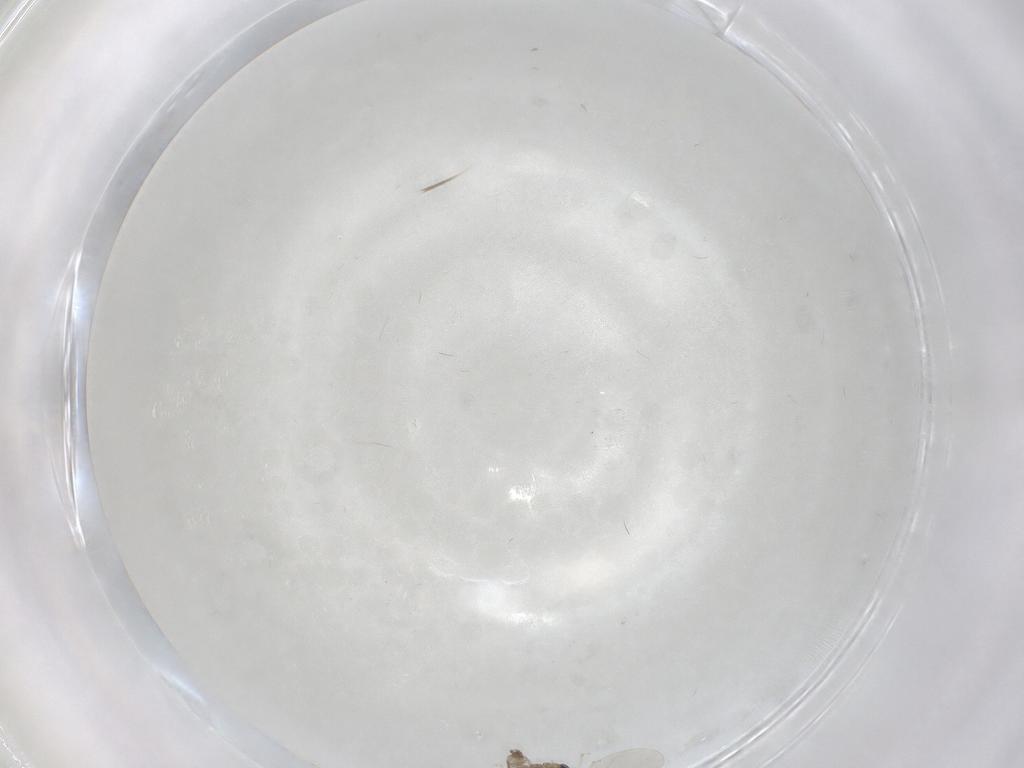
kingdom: Animalia
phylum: Arthropoda
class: Insecta
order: Diptera
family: Cecidomyiidae
